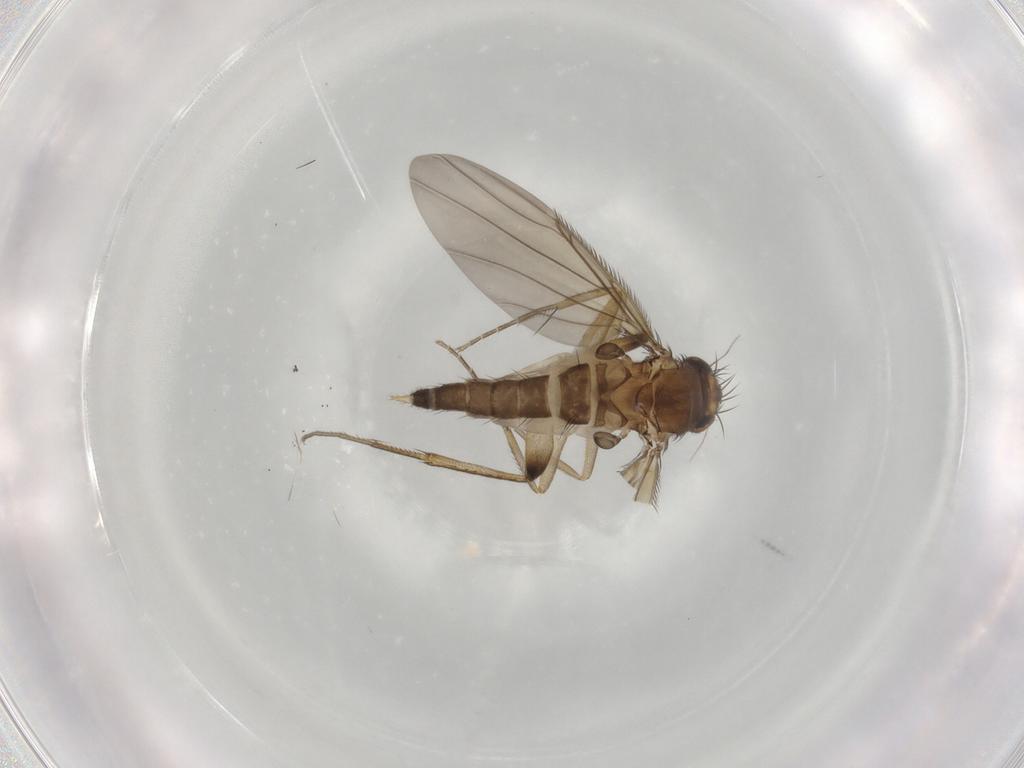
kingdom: Animalia
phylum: Arthropoda
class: Insecta
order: Diptera
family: Phoridae
